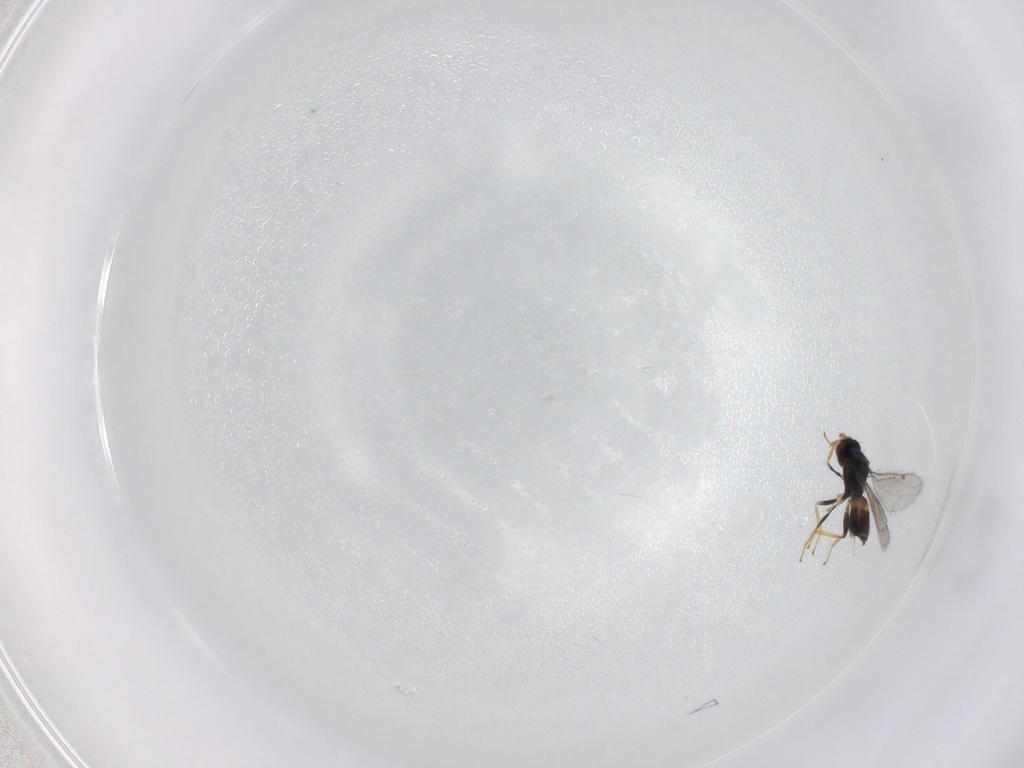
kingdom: Animalia
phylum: Arthropoda
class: Insecta
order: Hymenoptera
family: Eulophidae
